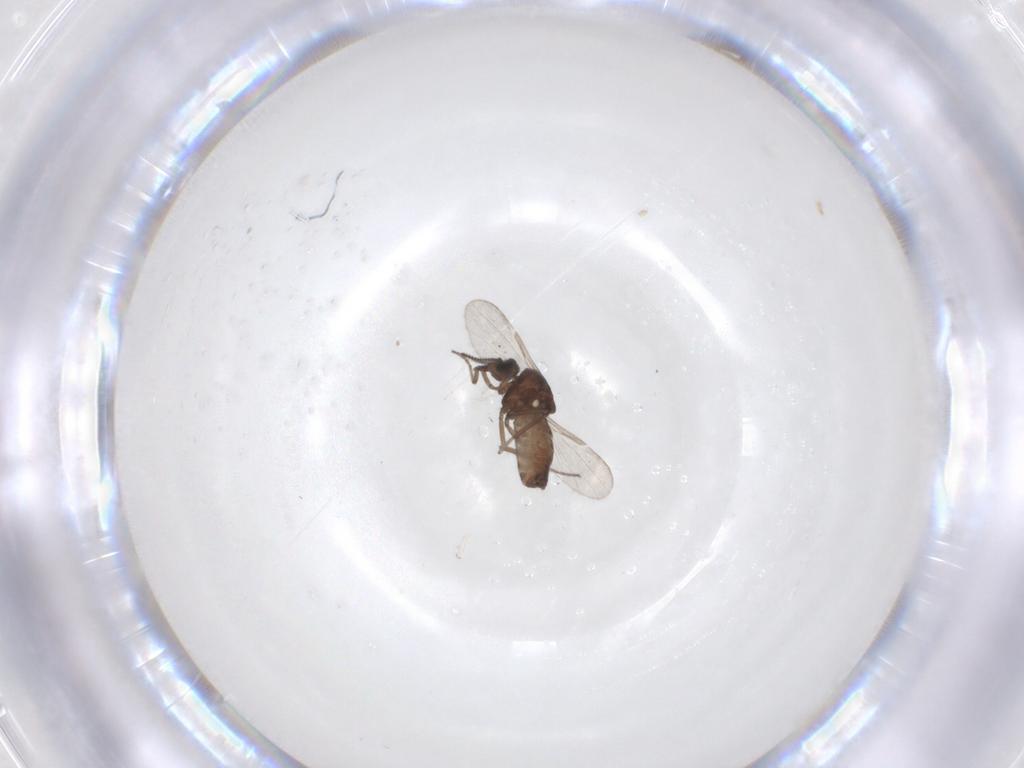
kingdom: Animalia
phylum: Arthropoda
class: Insecta
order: Diptera
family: Ceratopogonidae
